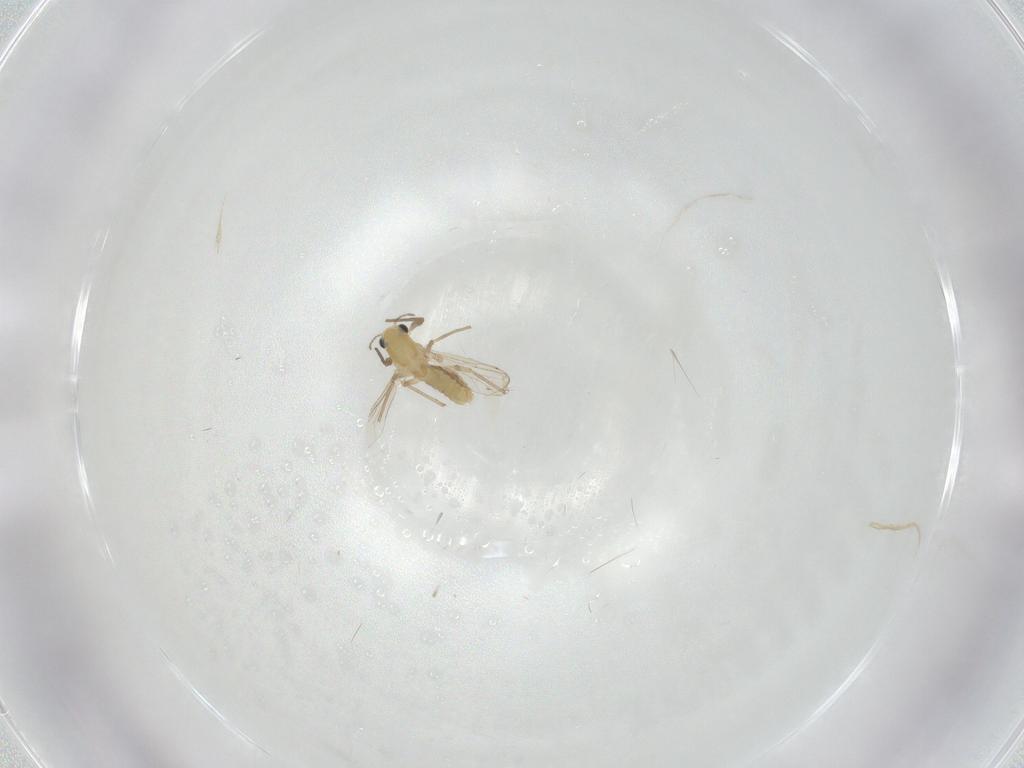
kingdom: Animalia
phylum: Arthropoda
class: Insecta
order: Diptera
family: Chironomidae
